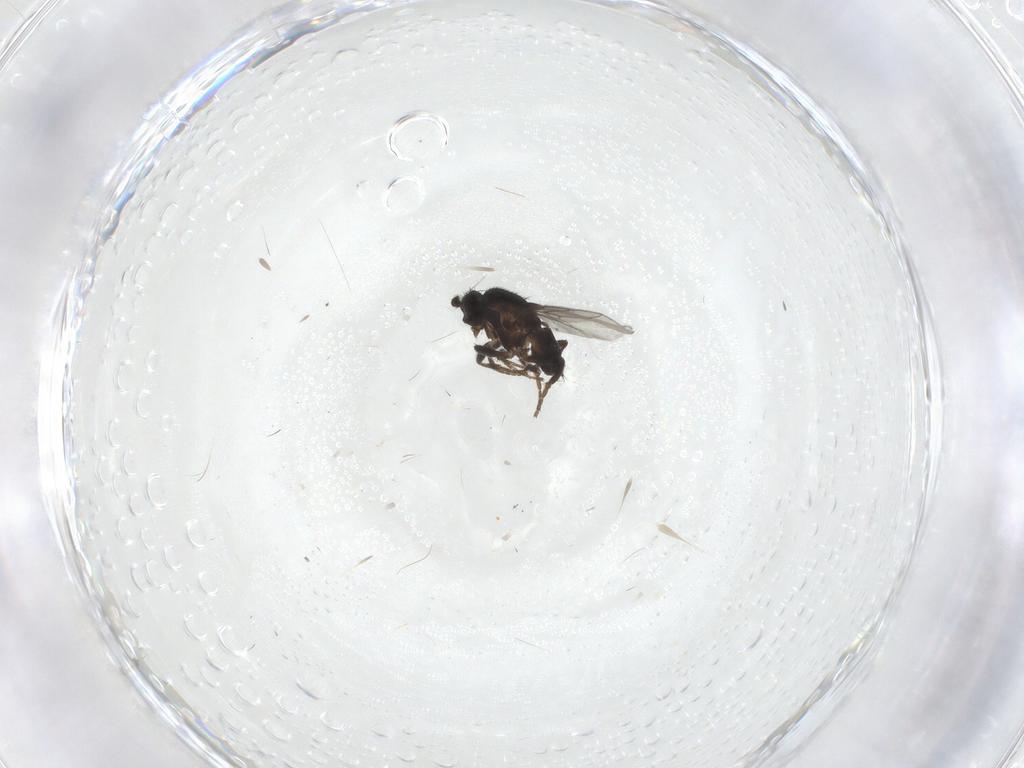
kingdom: Animalia
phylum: Arthropoda
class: Insecta
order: Diptera
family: Limoniidae
